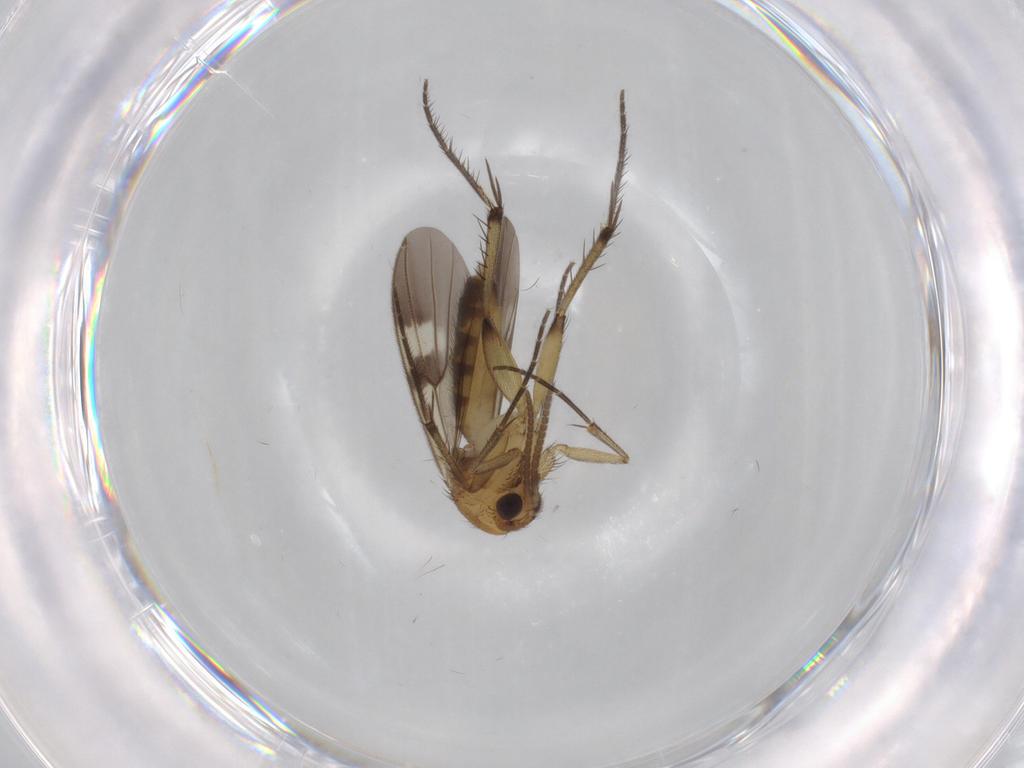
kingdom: Animalia
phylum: Arthropoda
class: Insecta
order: Diptera
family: Mycetophilidae
